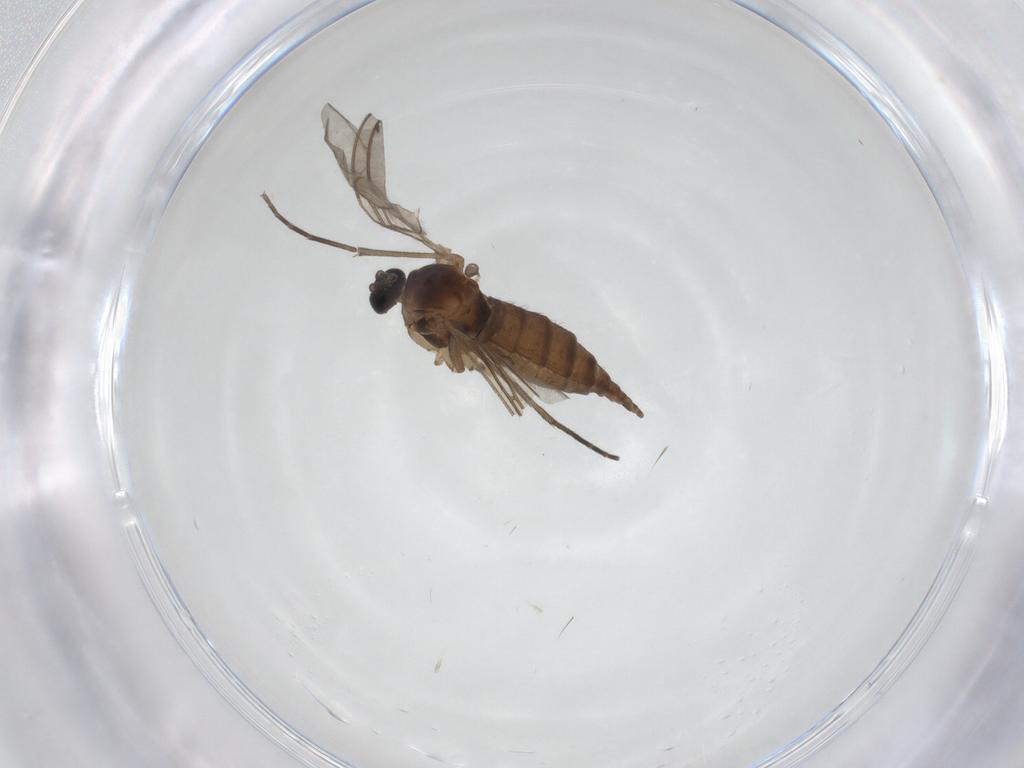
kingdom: Animalia
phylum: Arthropoda
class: Insecta
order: Diptera
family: Sciaridae
